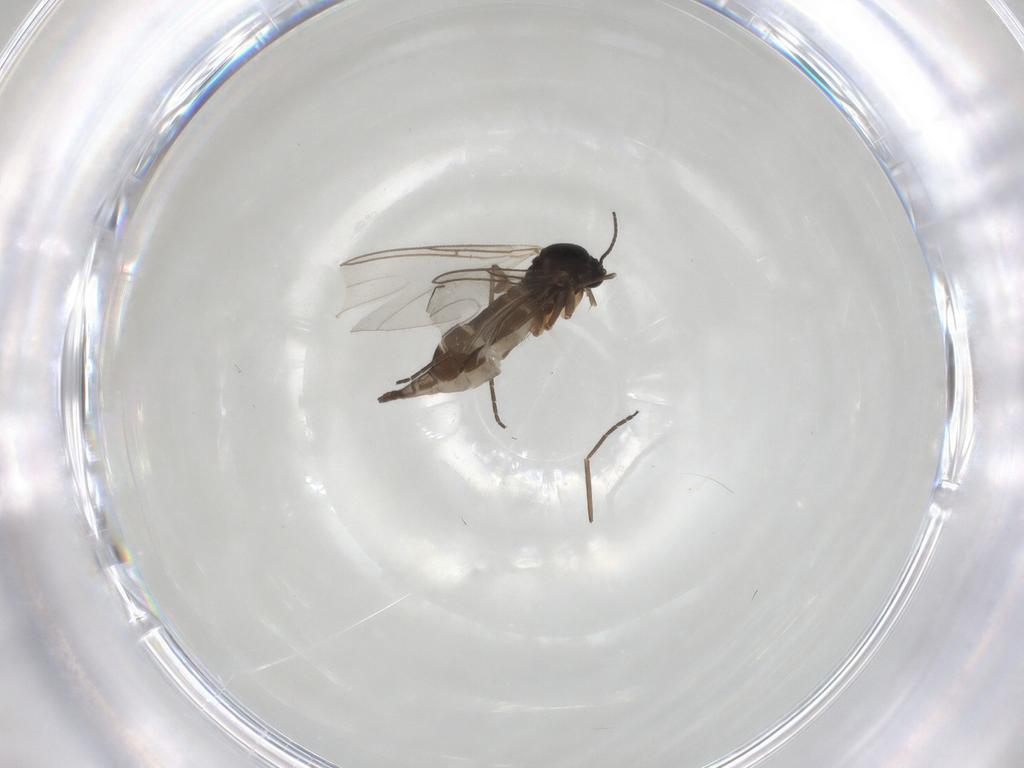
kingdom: Animalia
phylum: Arthropoda
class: Insecta
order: Diptera
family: Sciaridae
